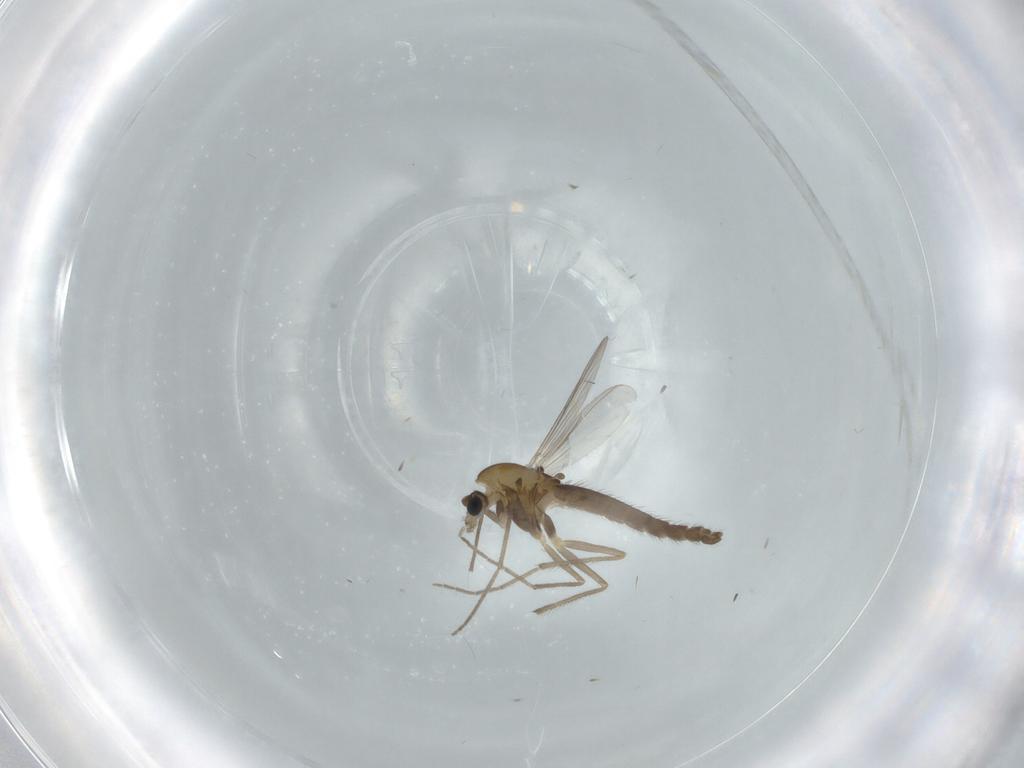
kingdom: Animalia
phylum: Arthropoda
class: Insecta
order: Diptera
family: Chironomidae
